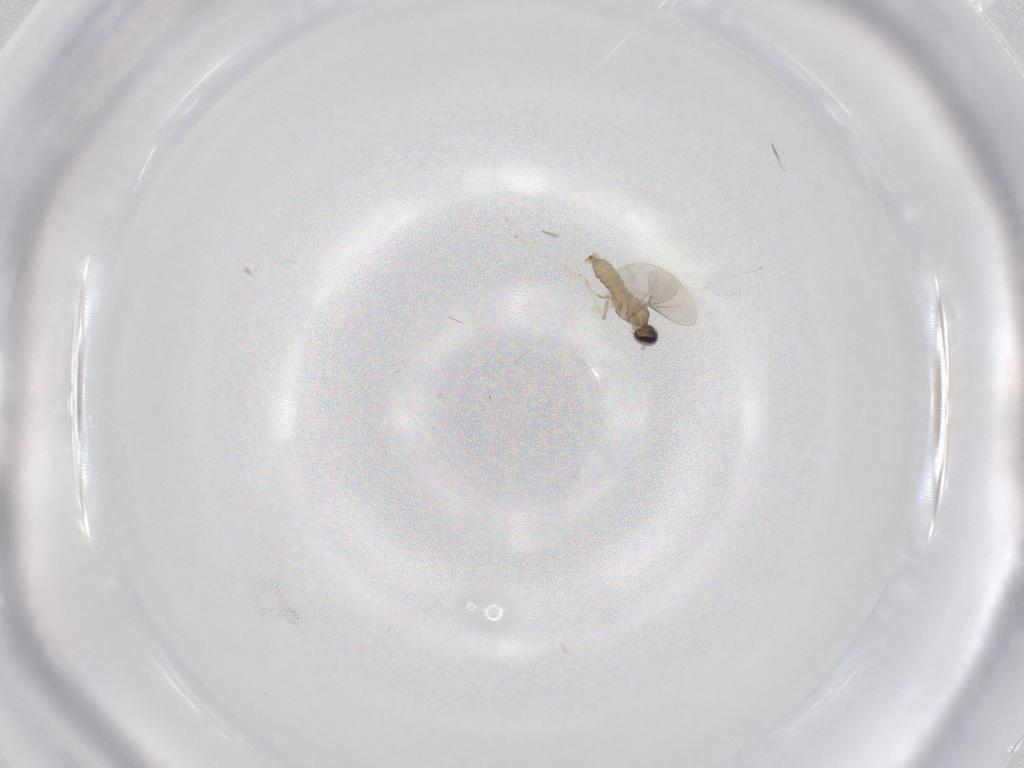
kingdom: Animalia
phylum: Arthropoda
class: Insecta
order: Diptera
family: Cecidomyiidae
